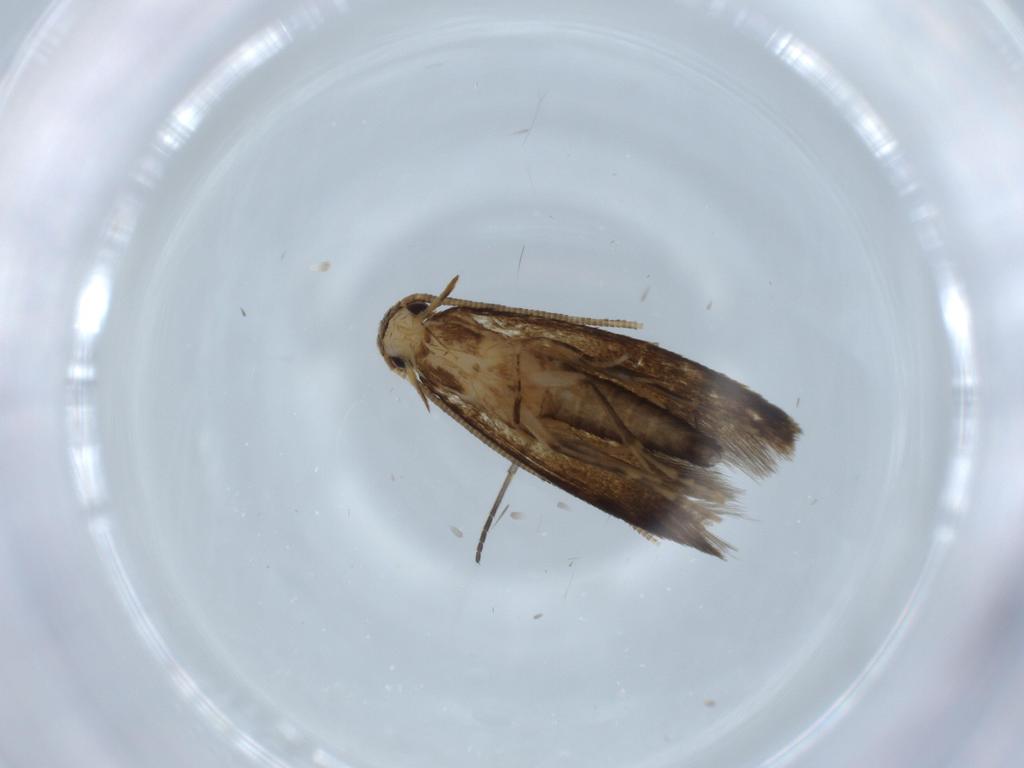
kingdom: Animalia
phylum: Arthropoda
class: Insecta
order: Lepidoptera
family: Tineidae
